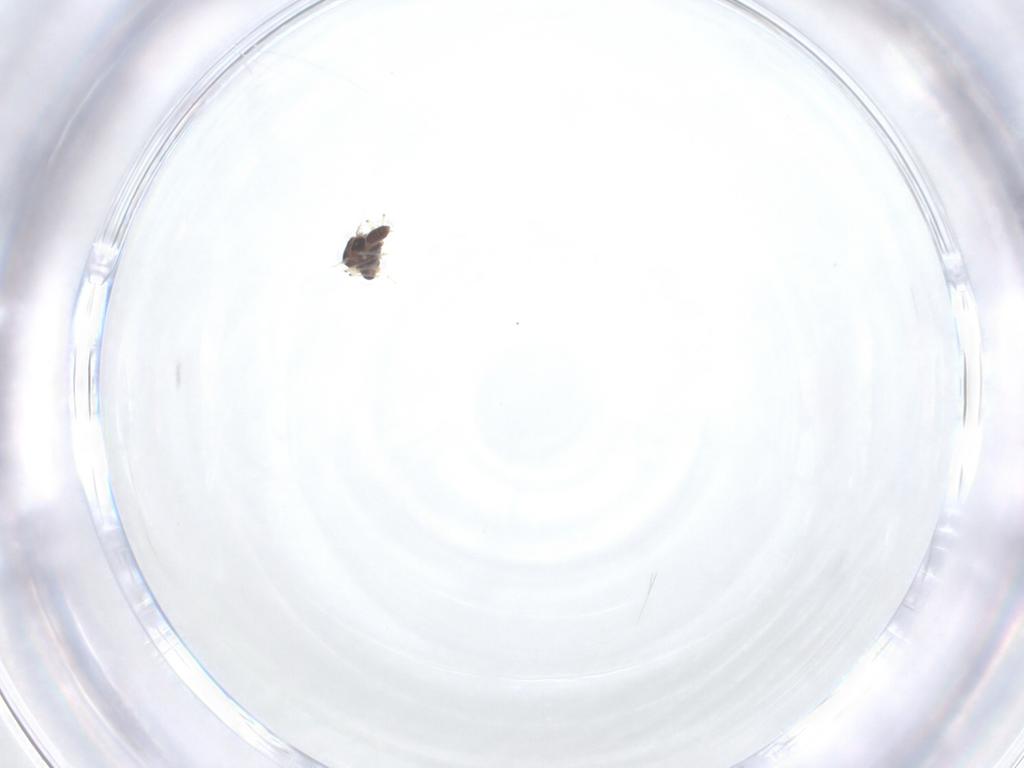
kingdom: Animalia
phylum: Arthropoda
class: Insecta
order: Diptera
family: Chironomidae
